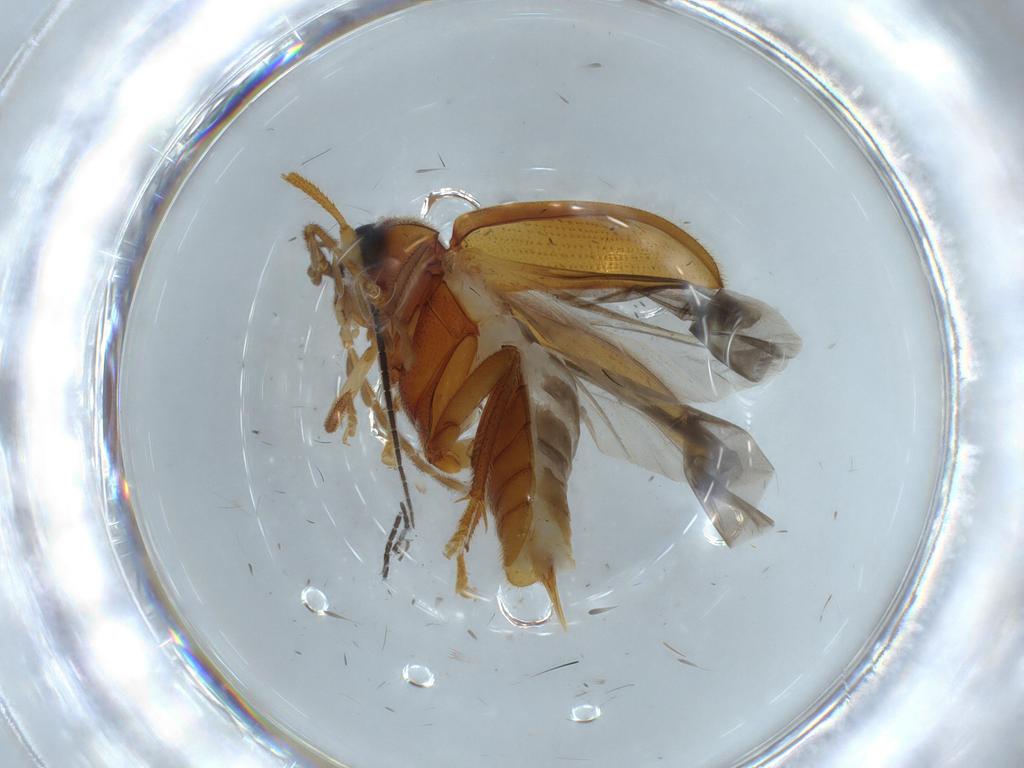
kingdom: Animalia
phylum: Arthropoda
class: Insecta
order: Coleoptera
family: Ptilodactylidae
